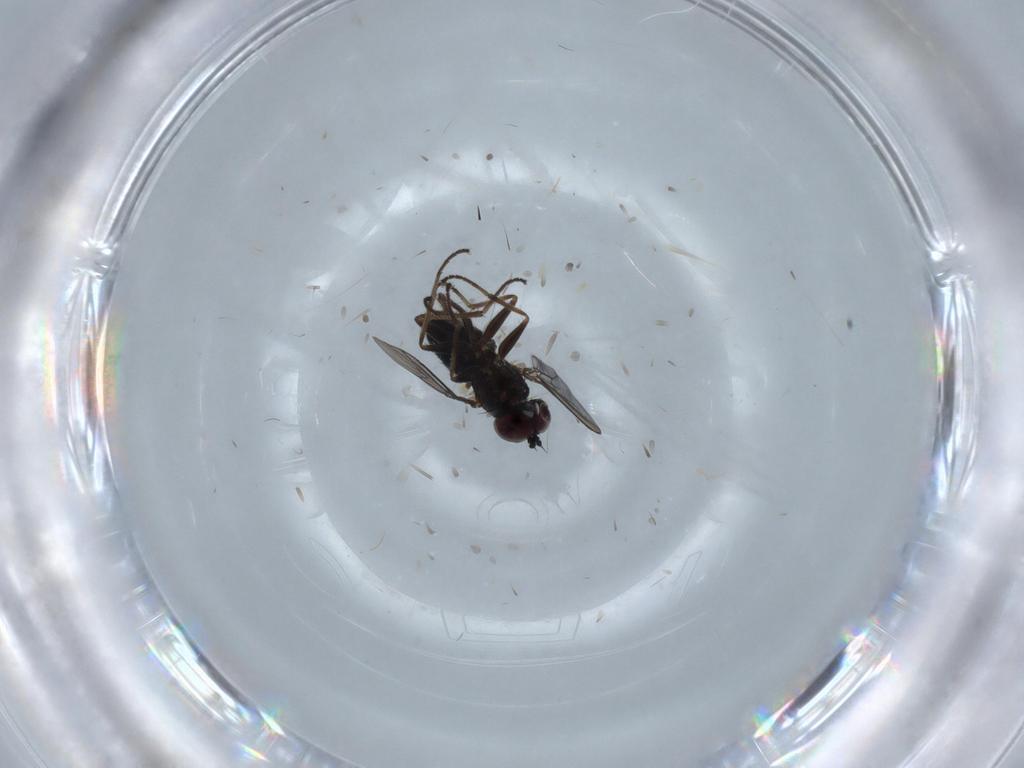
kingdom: Animalia
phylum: Arthropoda
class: Insecta
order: Diptera
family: Dolichopodidae
